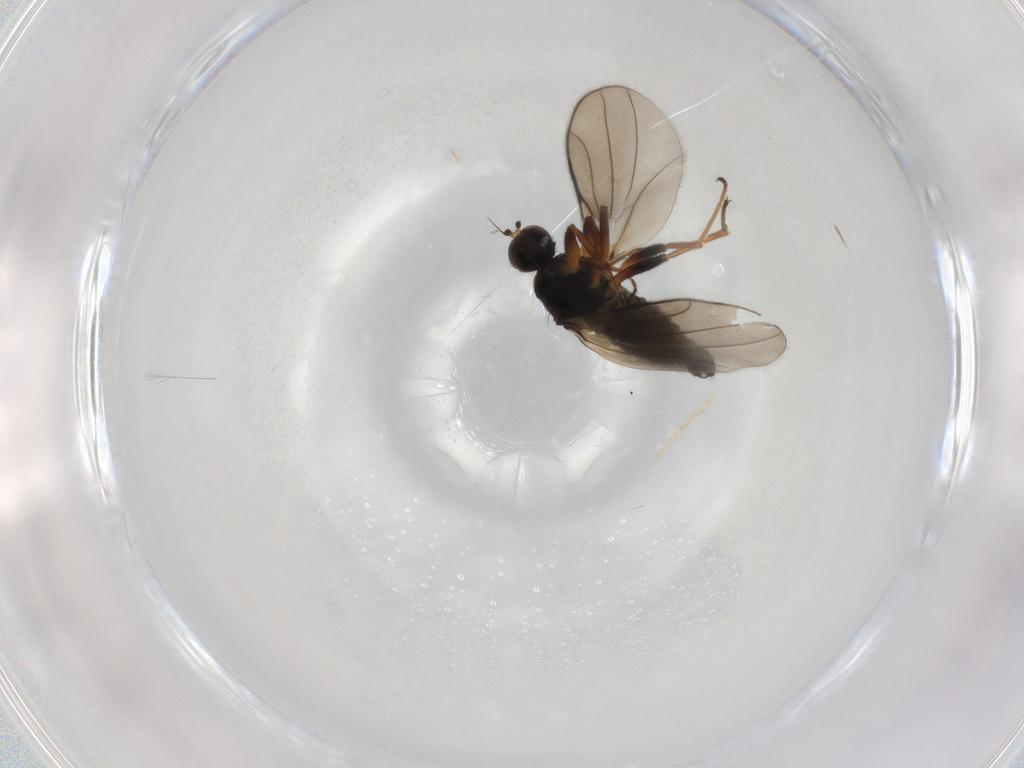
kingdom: Animalia
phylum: Arthropoda
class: Insecta
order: Diptera
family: Hybotidae
